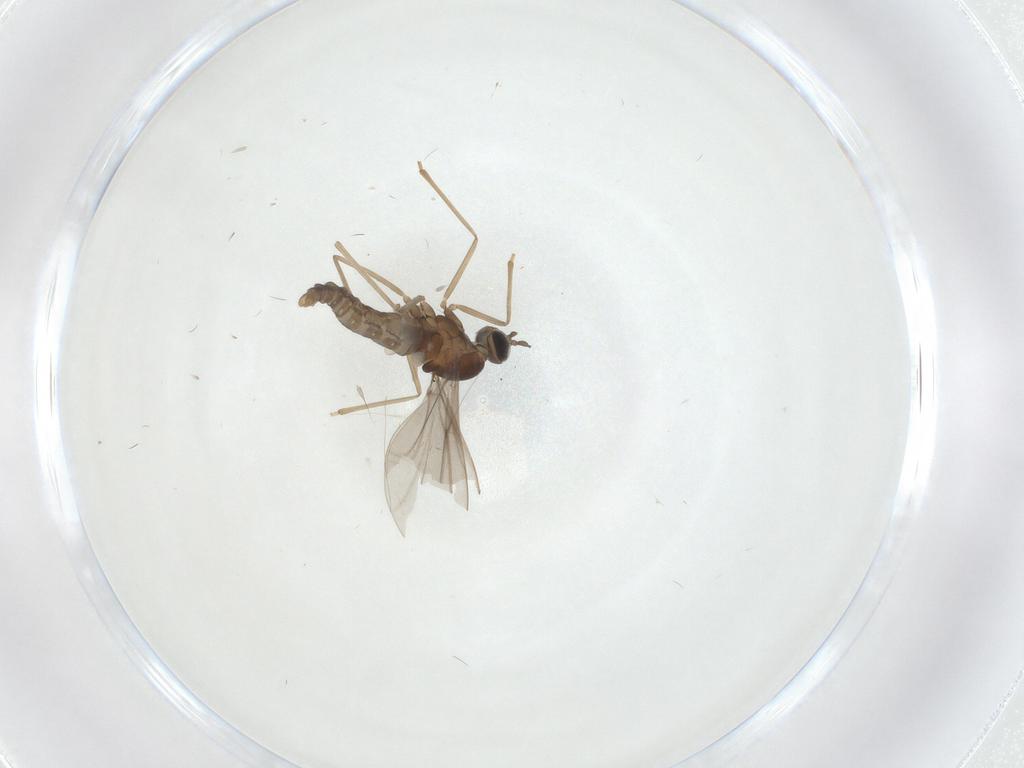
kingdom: Animalia
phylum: Arthropoda
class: Insecta
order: Diptera
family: Cecidomyiidae
